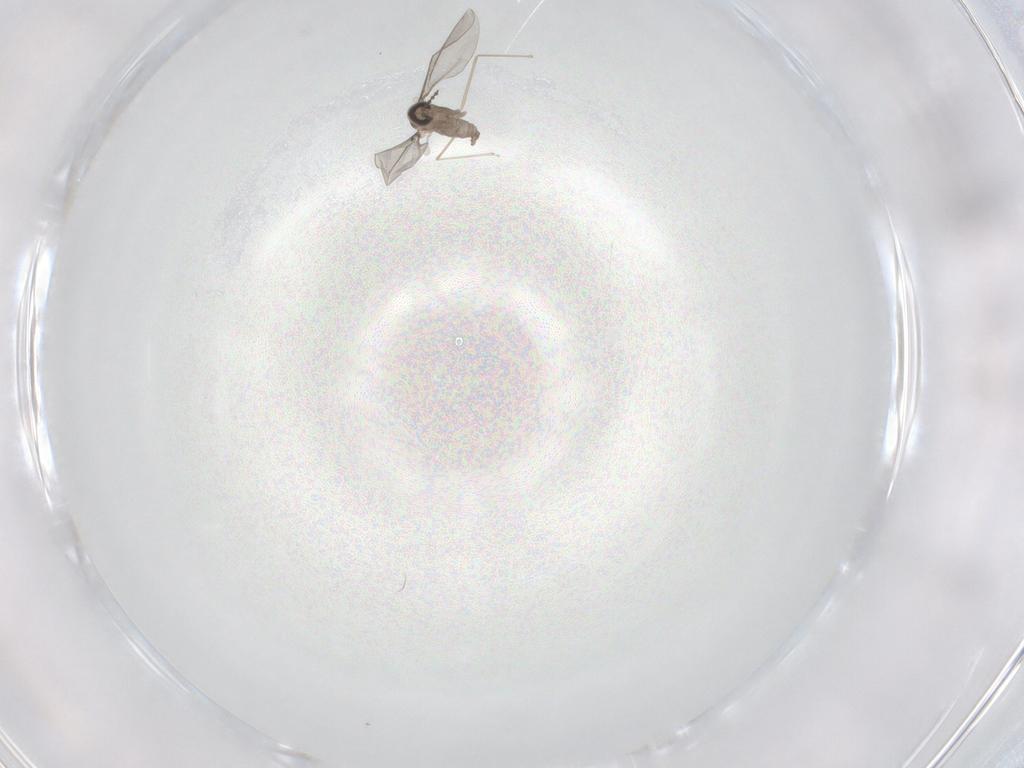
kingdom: Animalia
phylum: Arthropoda
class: Insecta
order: Diptera
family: Cecidomyiidae
